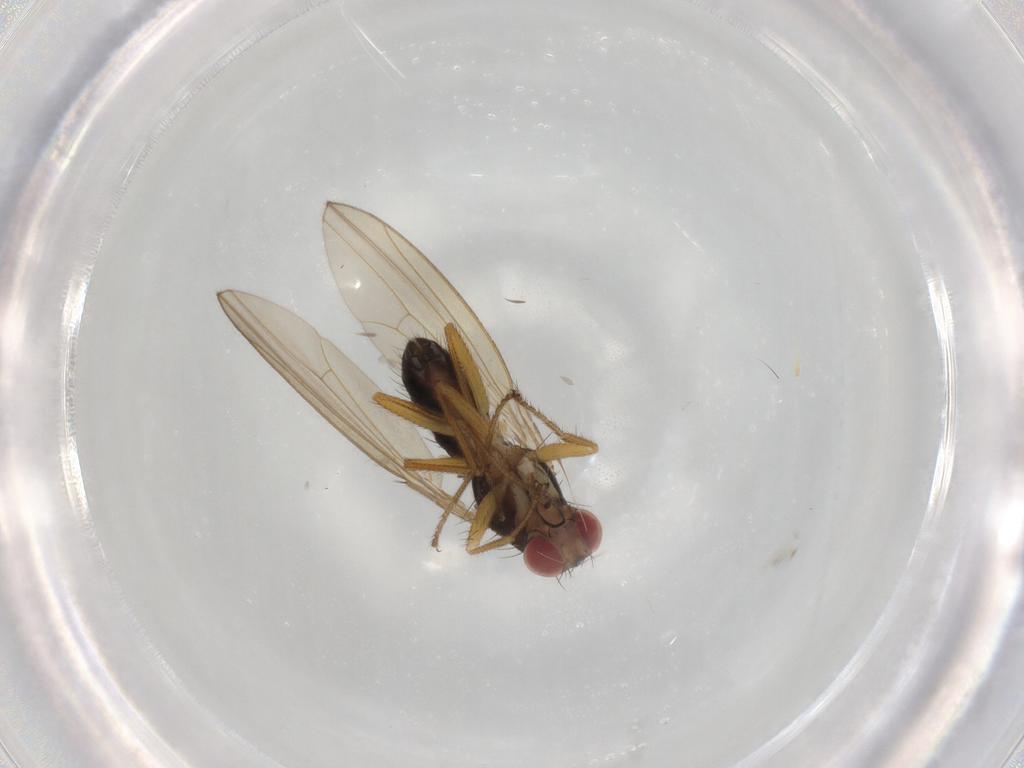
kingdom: Animalia
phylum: Arthropoda
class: Insecta
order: Diptera
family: Drosophilidae
